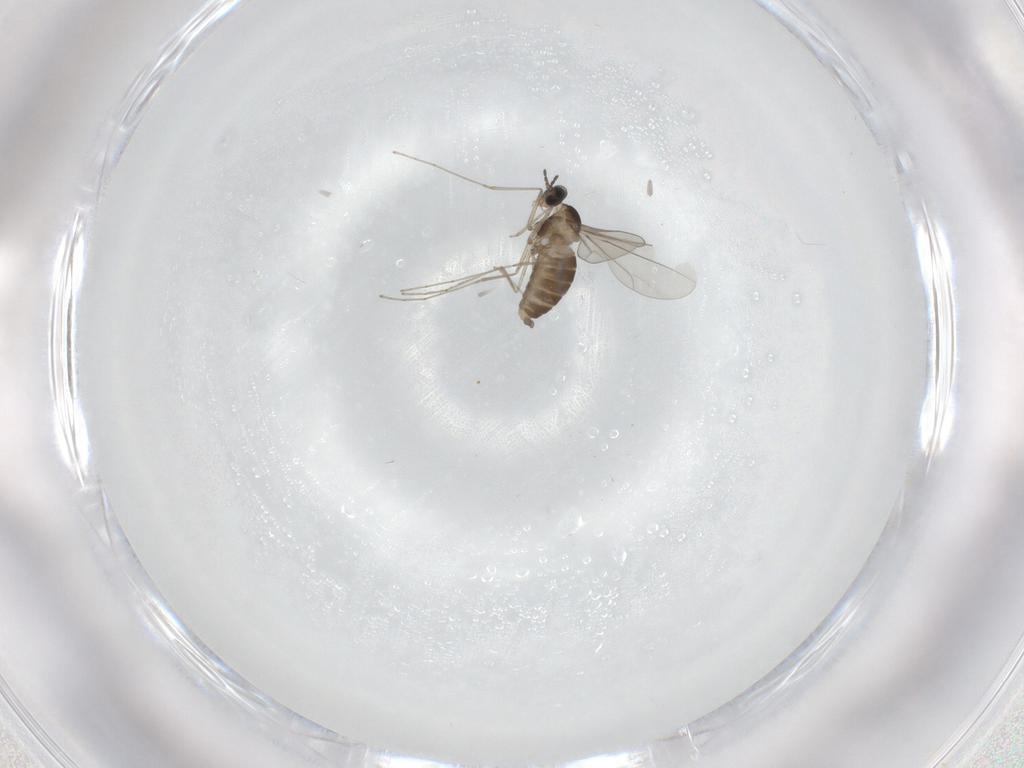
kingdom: Animalia
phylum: Arthropoda
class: Insecta
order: Diptera
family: Cecidomyiidae
